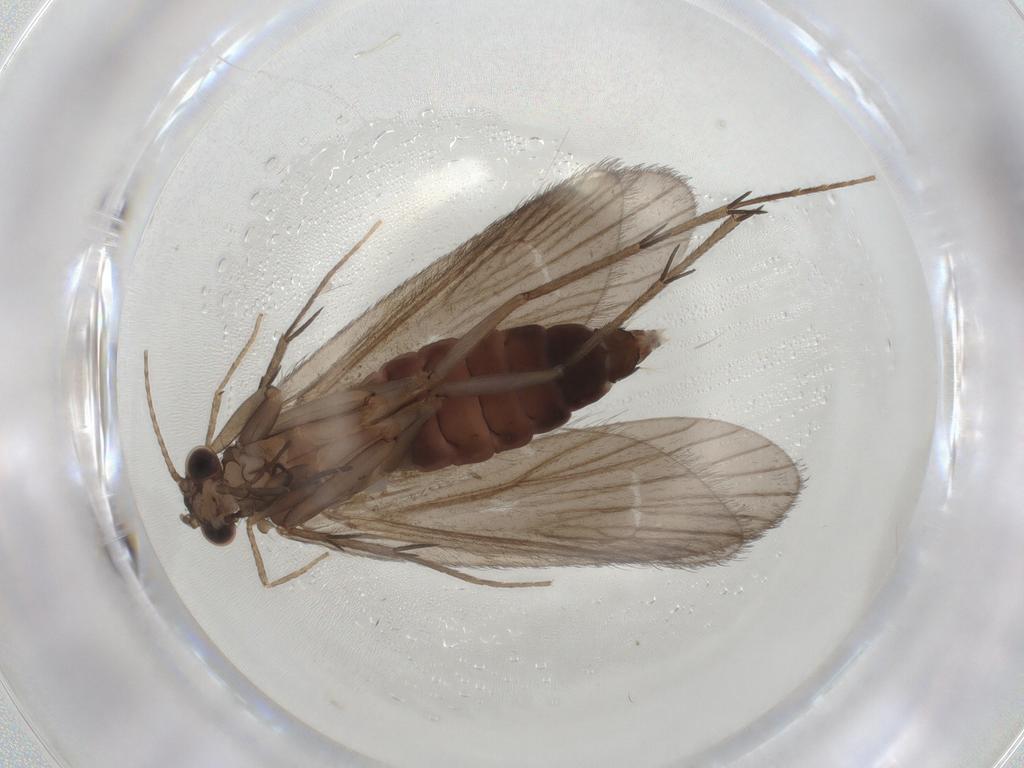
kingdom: Animalia
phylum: Arthropoda
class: Insecta
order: Trichoptera
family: Philopotamidae
